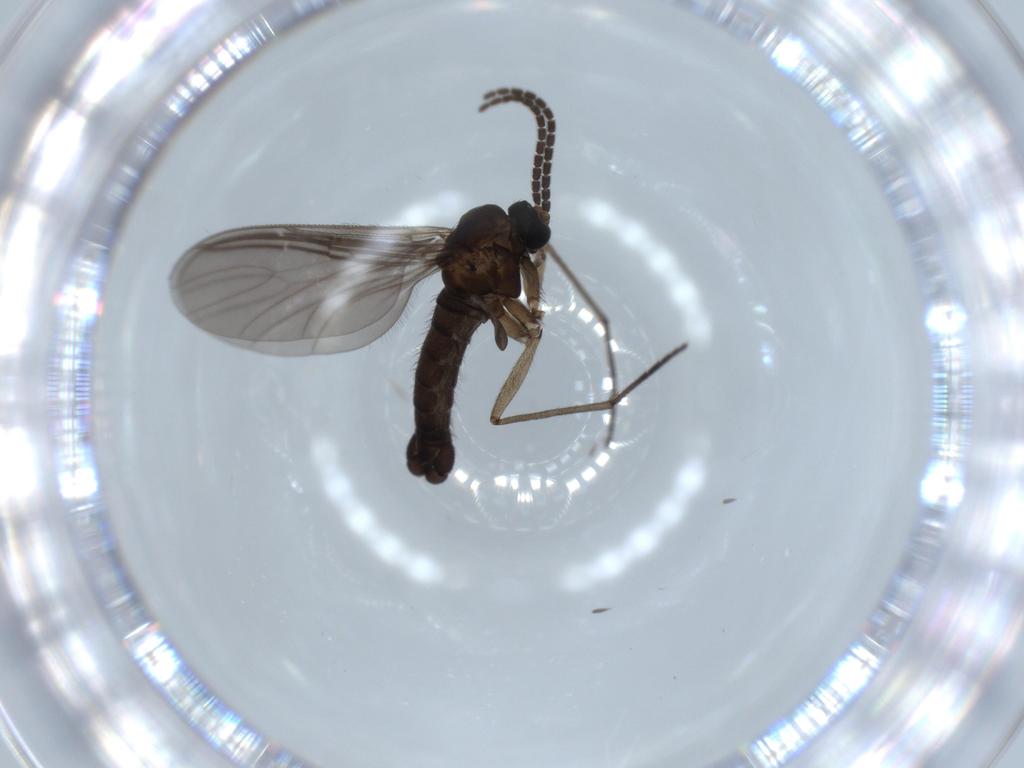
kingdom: Animalia
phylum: Arthropoda
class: Insecta
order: Diptera
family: Sciaridae
